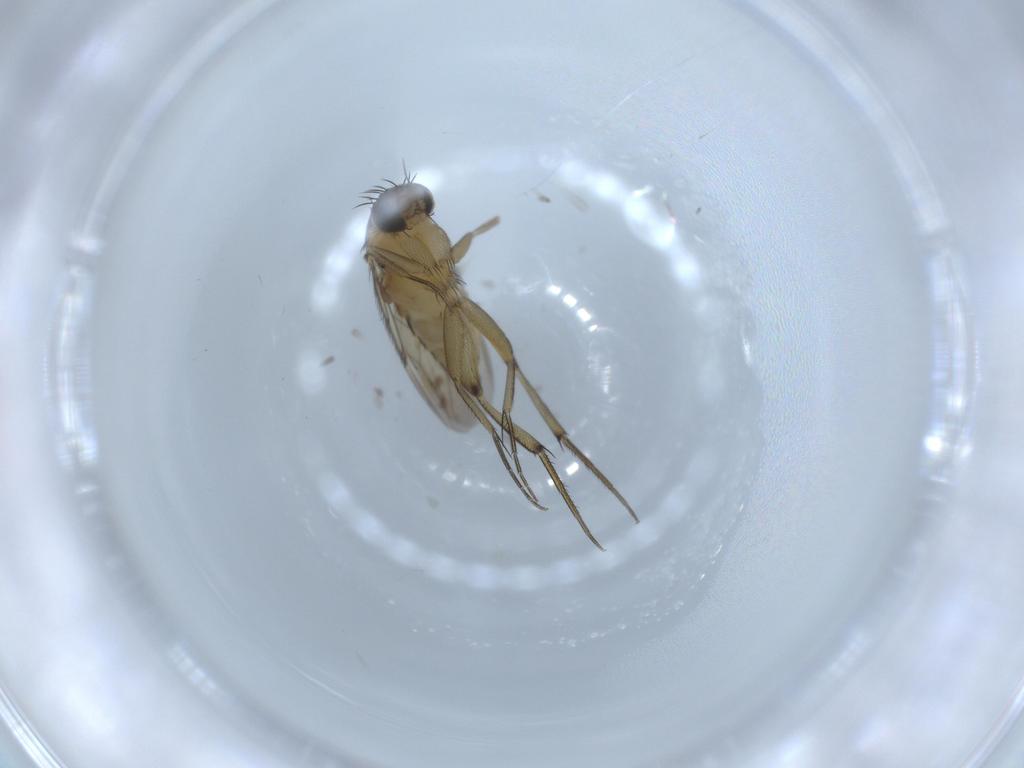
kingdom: Animalia
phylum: Arthropoda
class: Insecta
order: Diptera
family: Phoridae
